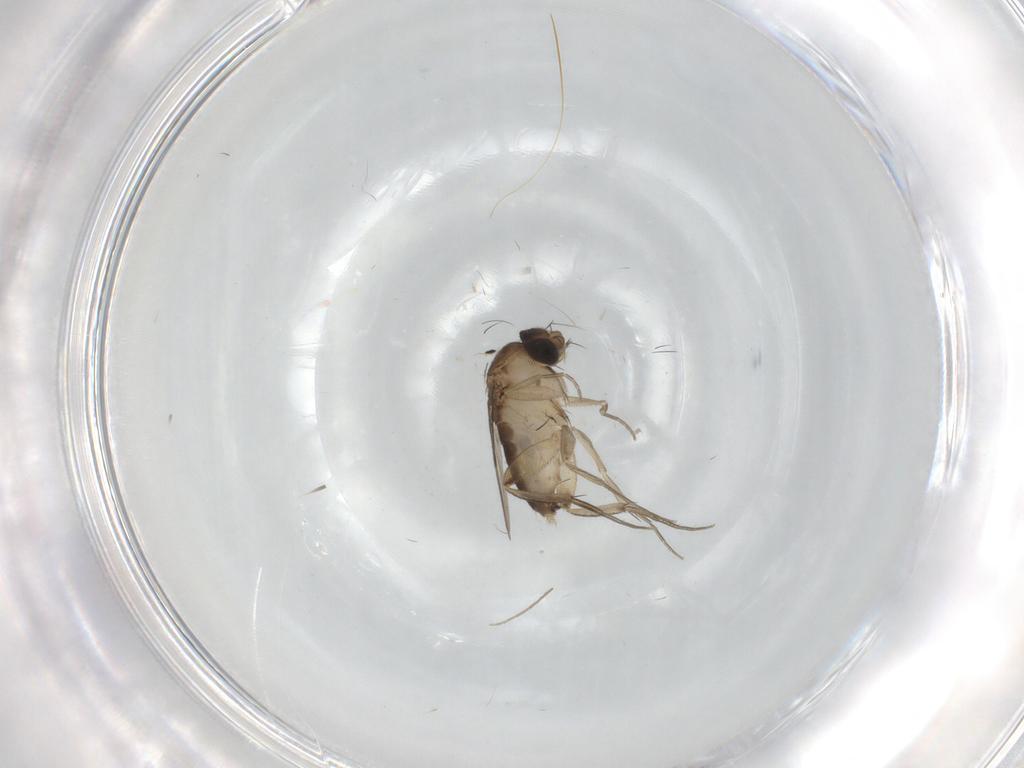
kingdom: Animalia
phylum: Arthropoda
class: Insecta
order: Diptera
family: Phoridae
